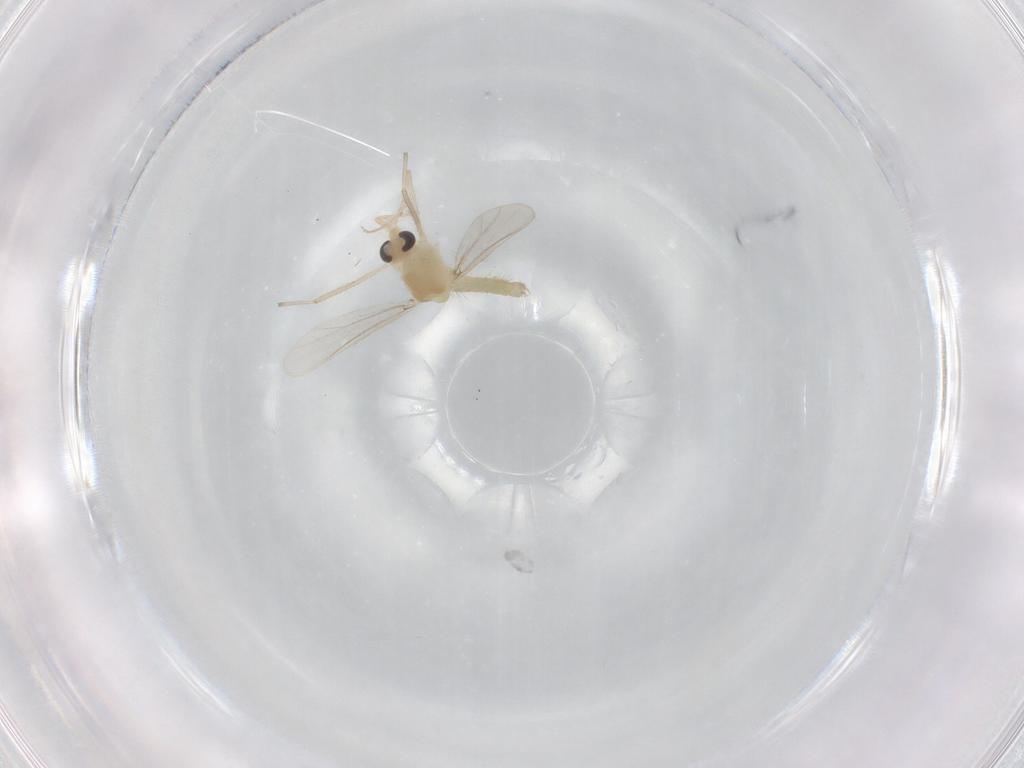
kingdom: Animalia
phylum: Arthropoda
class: Insecta
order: Diptera
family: Chironomidae
